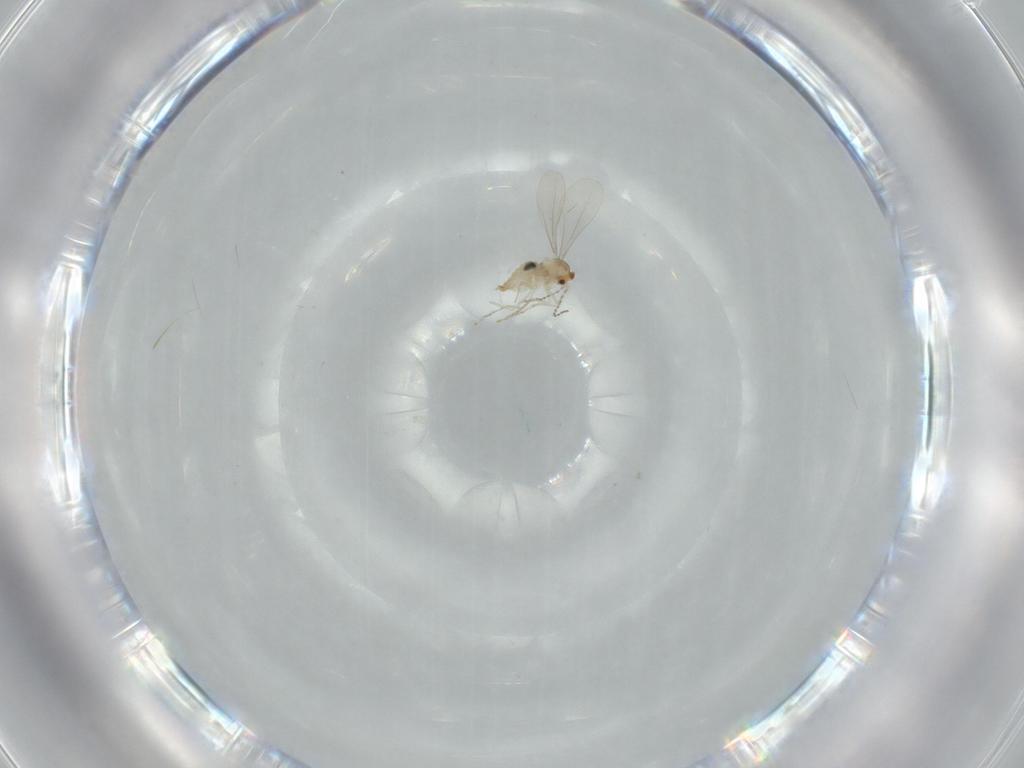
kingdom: Animalia
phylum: Arthropoda
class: Insecta
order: Diptera
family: Cecidomyiidae
